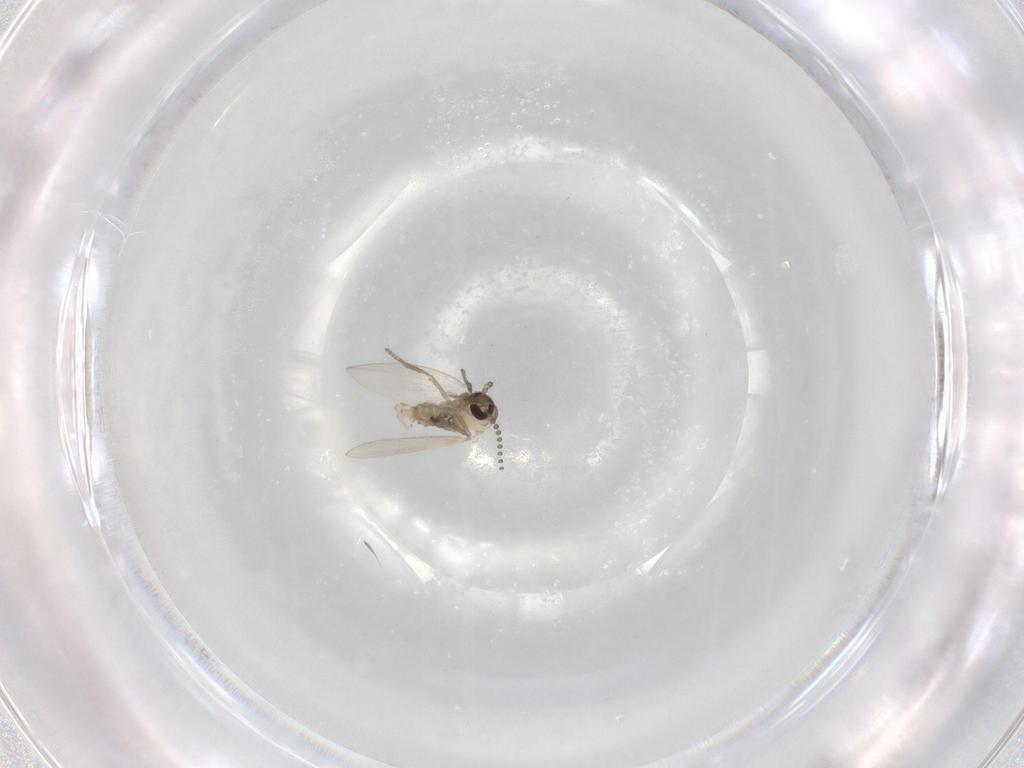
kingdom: Animalia
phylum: Arthropoda
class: Insecta
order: Diptera
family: Psychodidae
